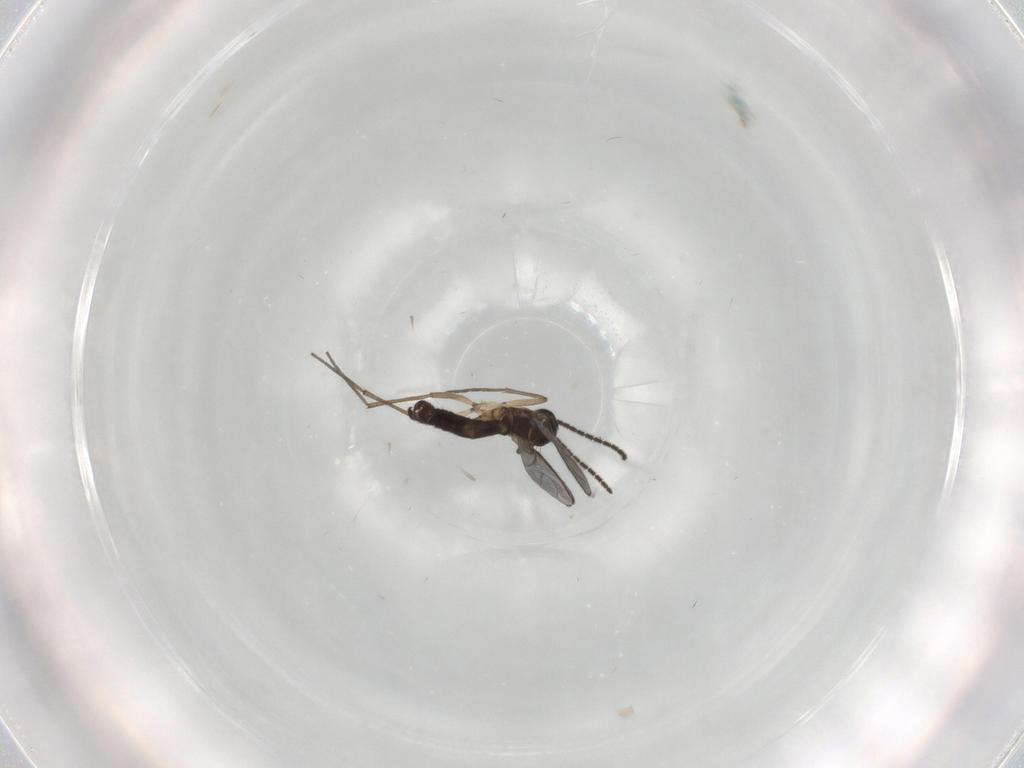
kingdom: Animalia
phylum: Arthropoda
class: Insecta
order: Diptera
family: Sciaridae
